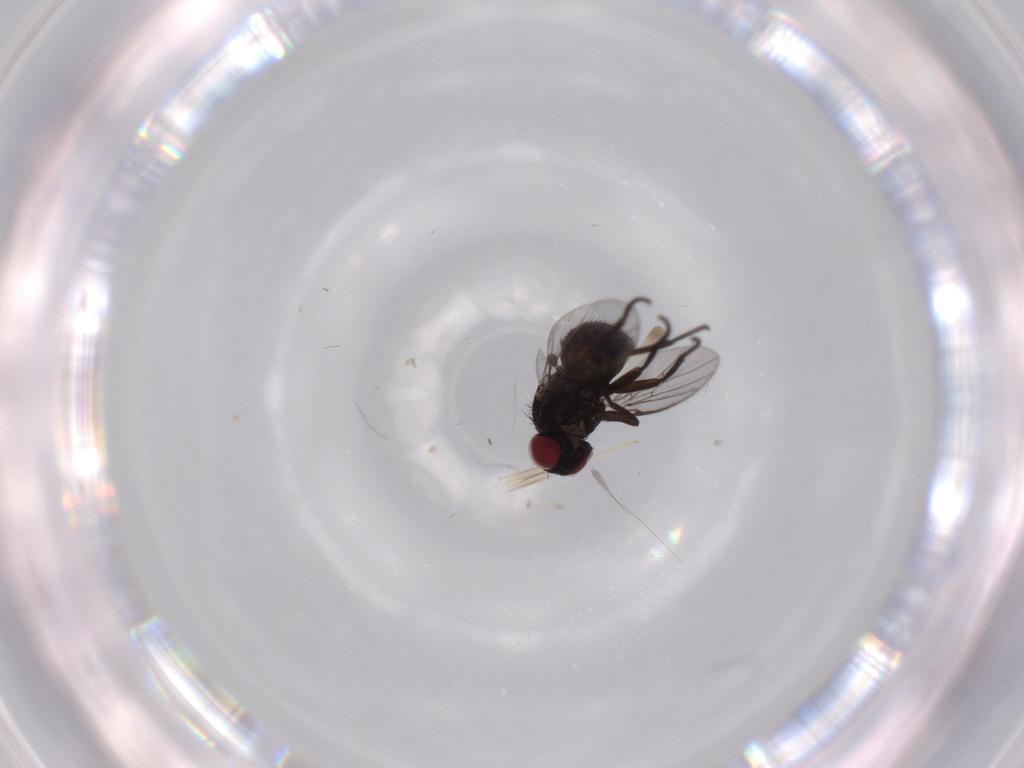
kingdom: Animalia
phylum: Arthropoda
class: Insecta
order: Diptera
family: Agromyzidae
